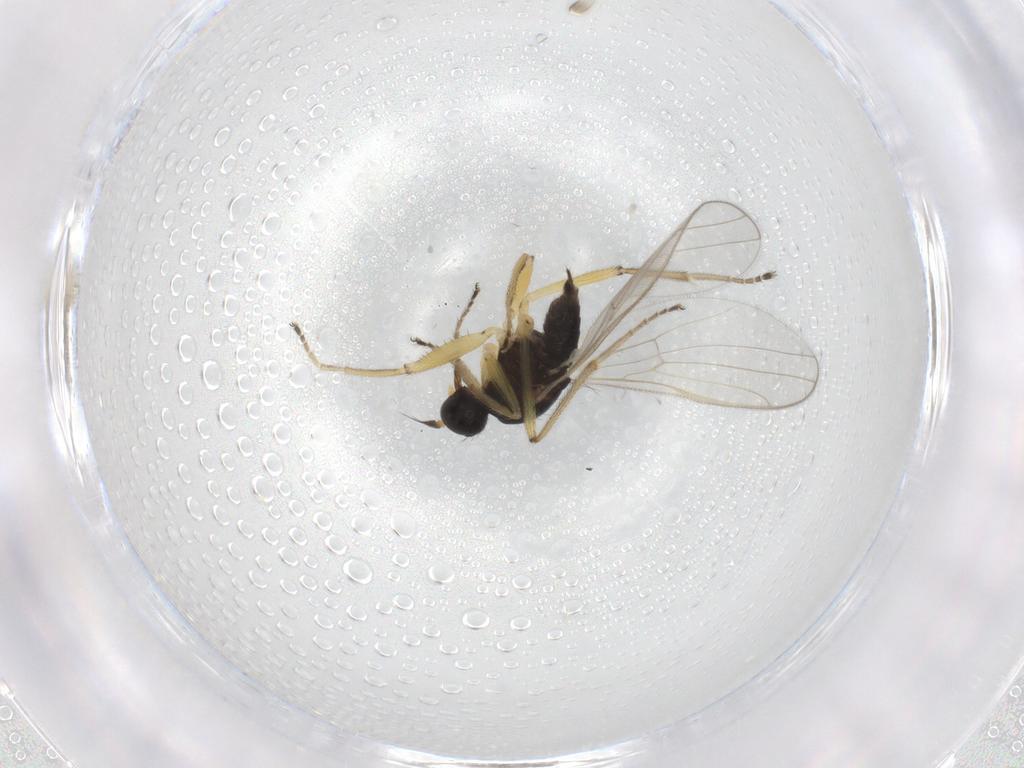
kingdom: Animalia
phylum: Arthropoda
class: Insecta
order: Diptera
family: Hybotidae
